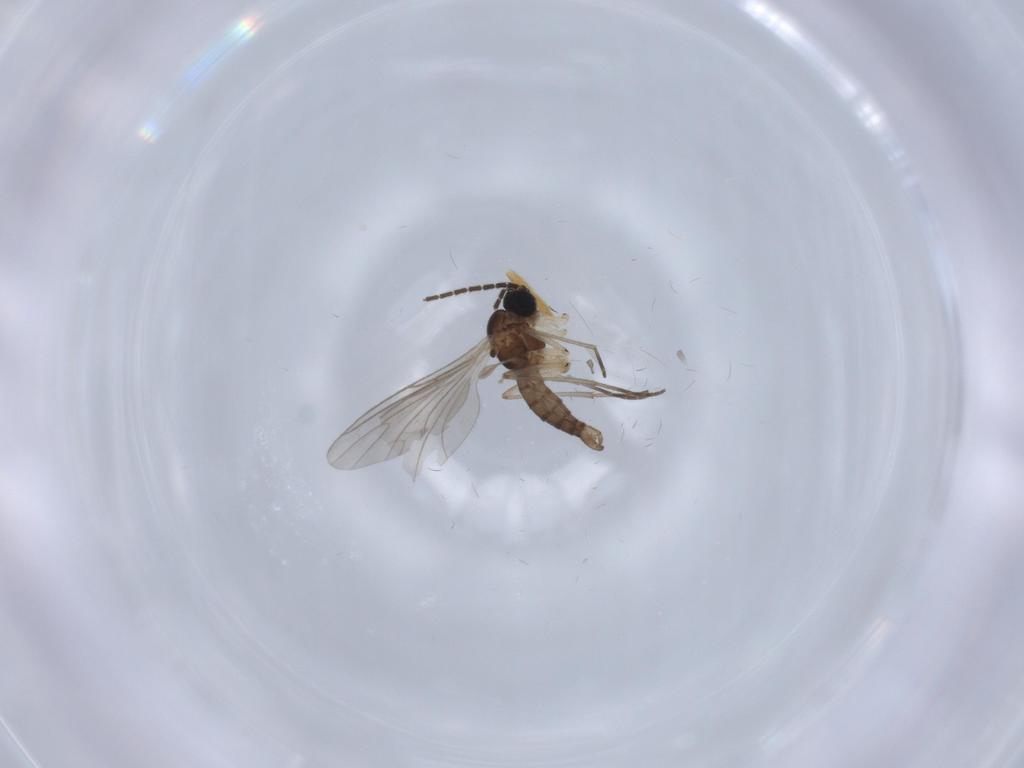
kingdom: Animalia
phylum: Arthropoda
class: Insecta
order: Diptera
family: Sciaridae
